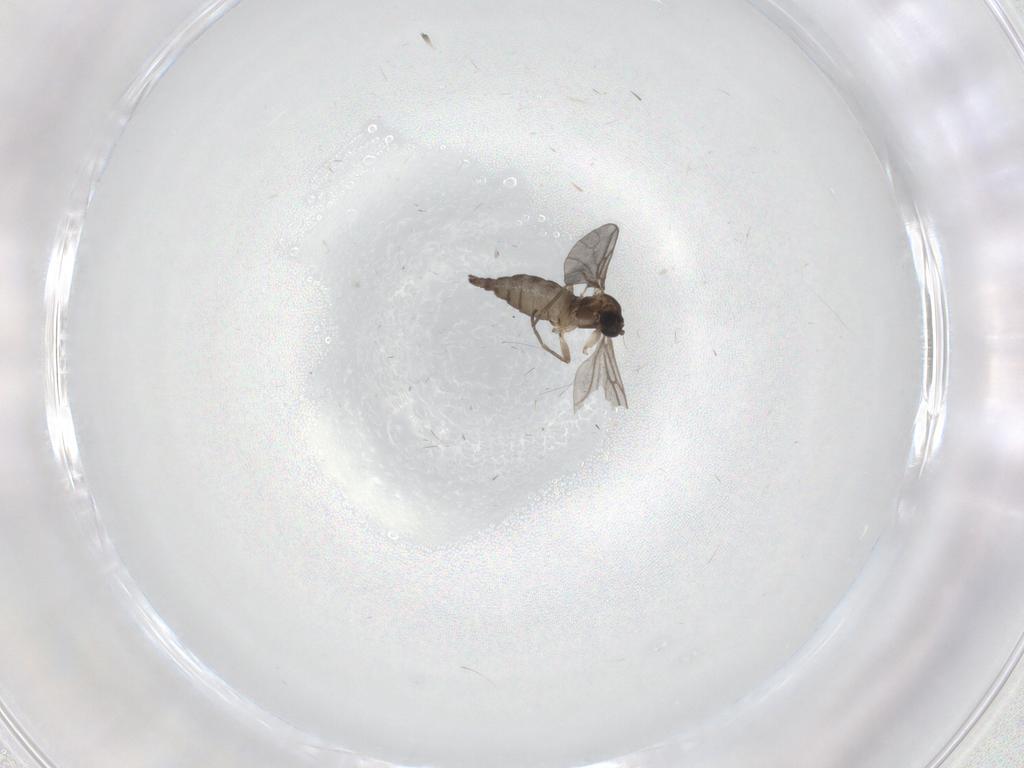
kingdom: Animalia
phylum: Arthropoda
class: Insecta
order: Diptera
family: Sciaridae
